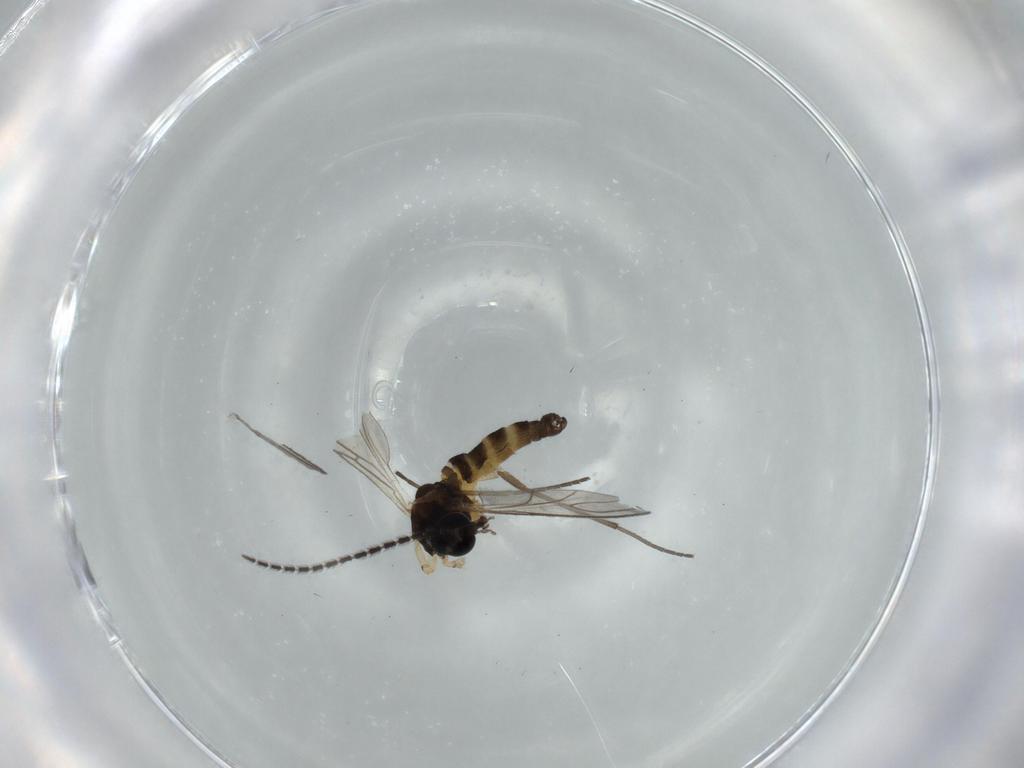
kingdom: Animalia
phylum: Arthropoda
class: Insecta
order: Diptera
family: Sciaridae
